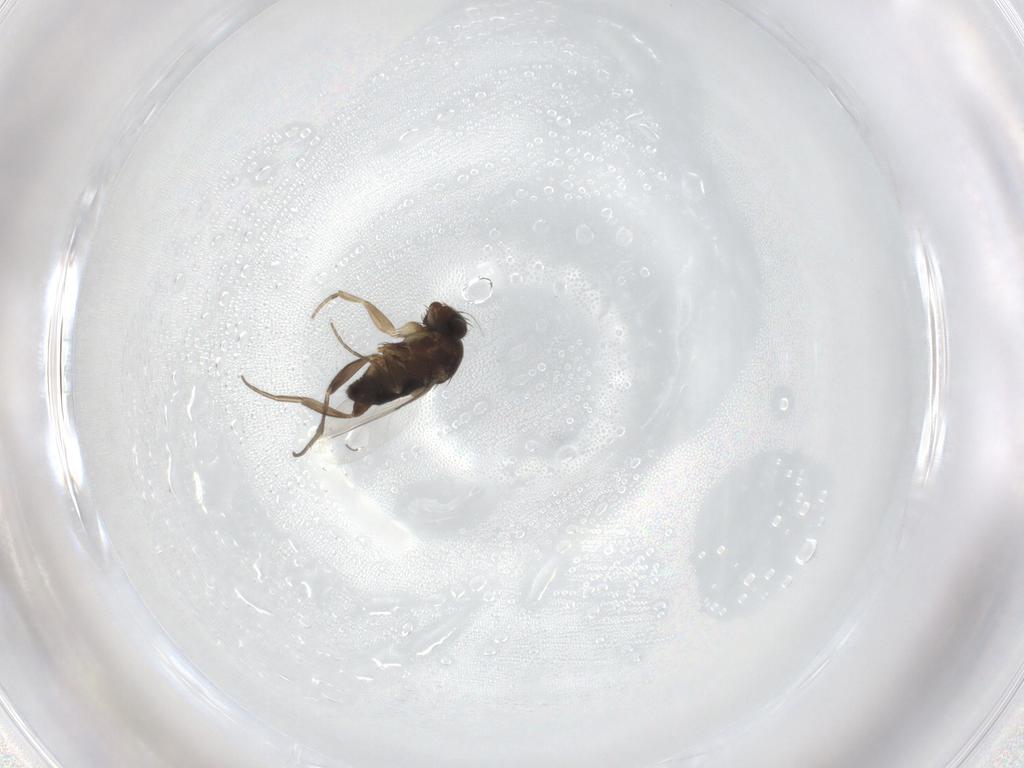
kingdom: Animalia
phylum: Arthropoda
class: Insecta
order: Diptera
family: Phoridae
